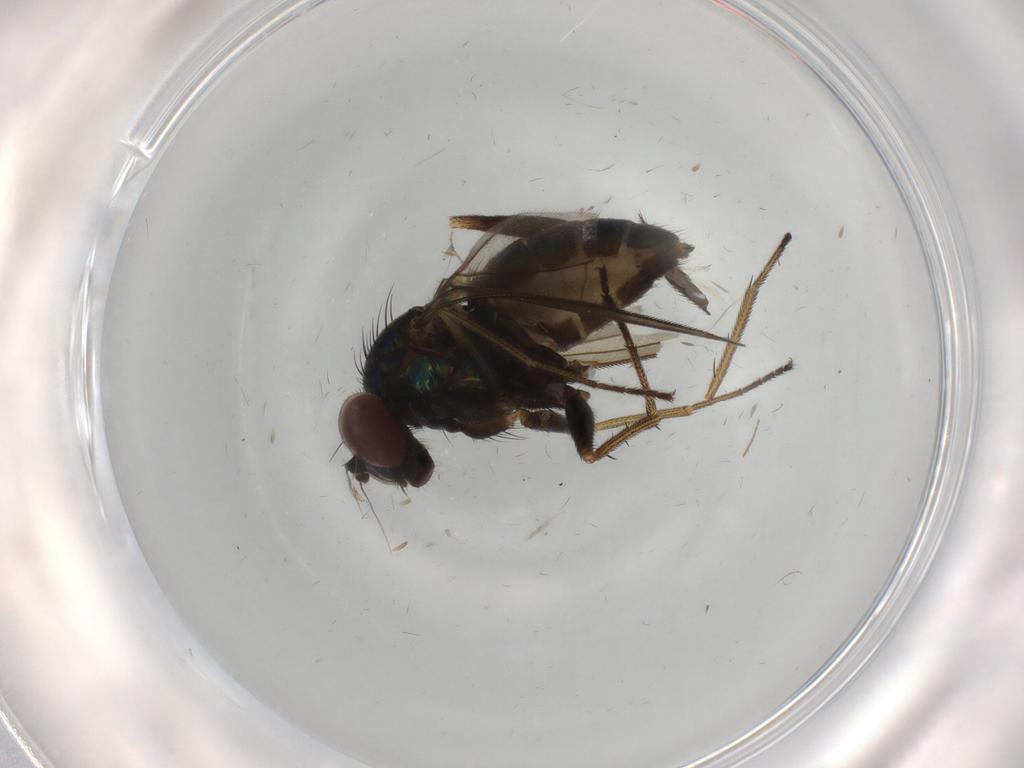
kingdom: Animalia
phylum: Arthropoda
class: Insecta
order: Diptera
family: Dolichopodidae
